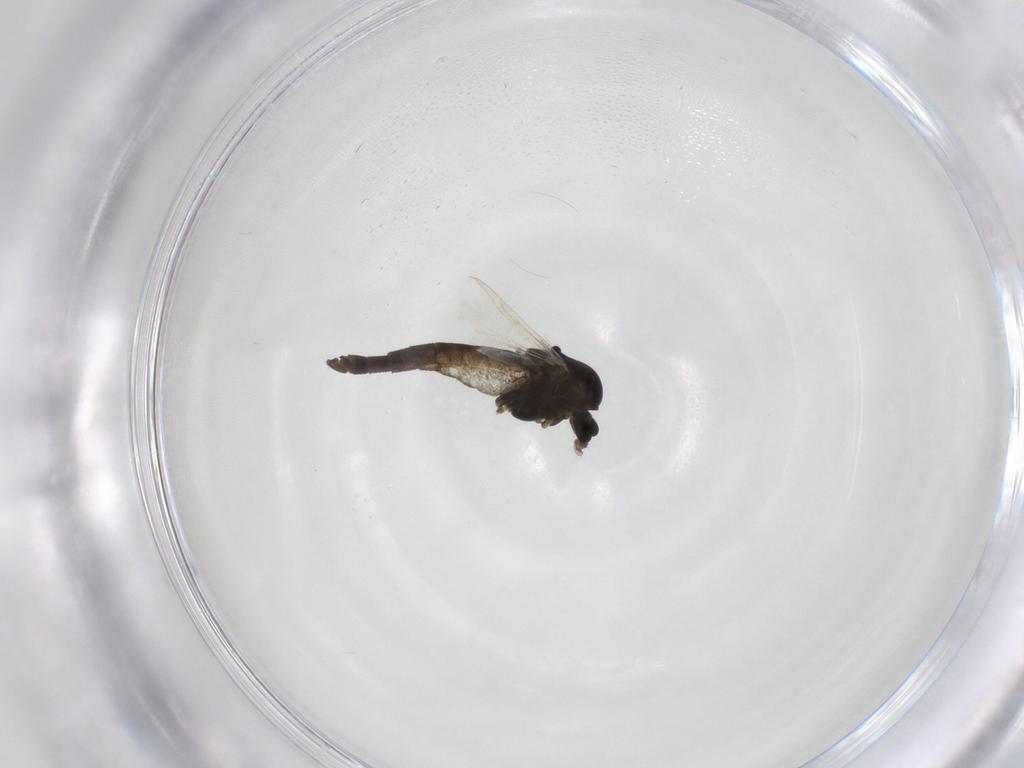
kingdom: Animalia
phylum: Arthropoda
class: Insecta
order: Diptera
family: Chironomidae
